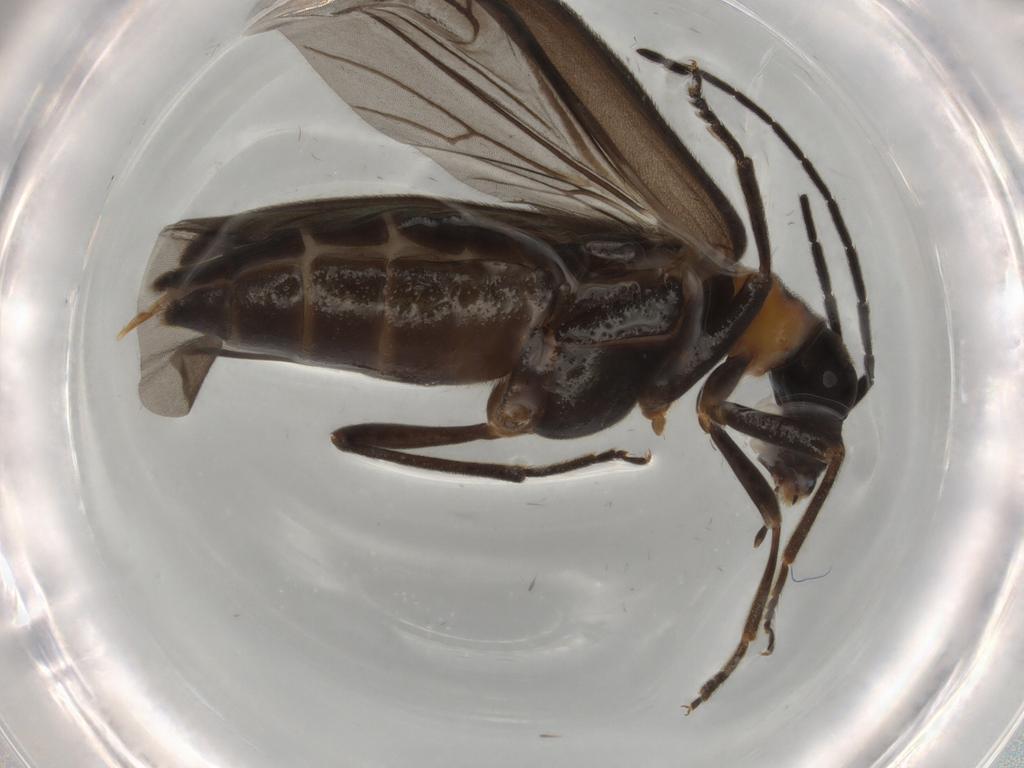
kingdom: Animalia
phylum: Arthropoda
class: Insecta
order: Coleoptera
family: Oedemeridae
